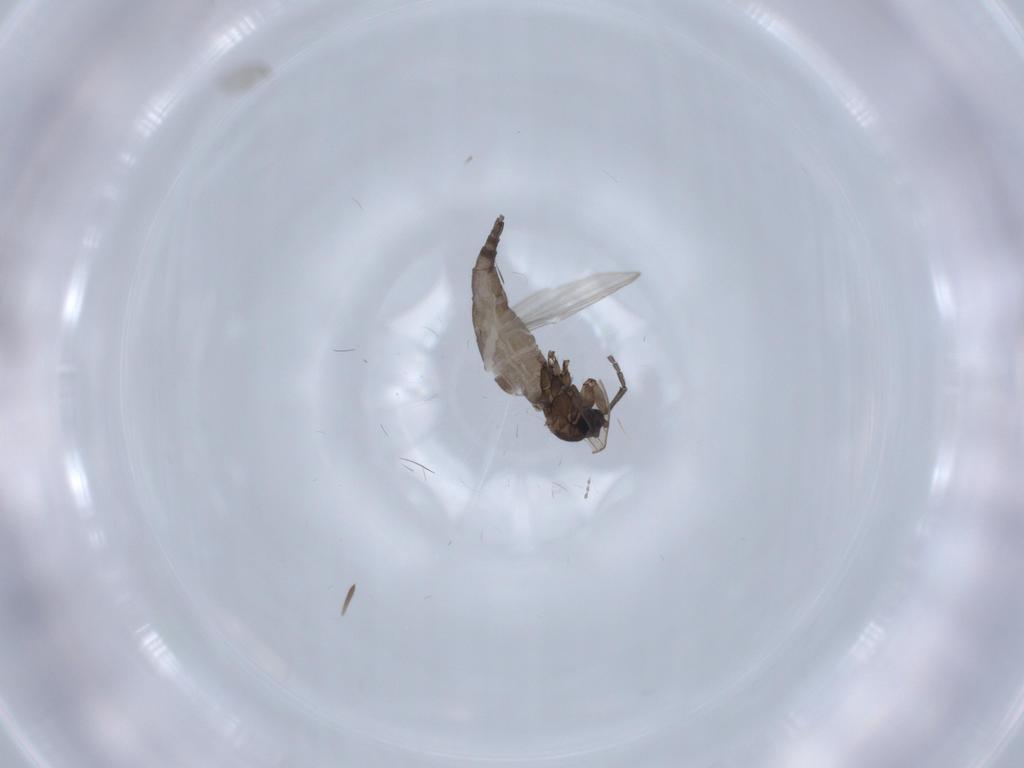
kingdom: Animalia
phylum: Arthropoda
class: Insecta
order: Diptera
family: Sciaridae
